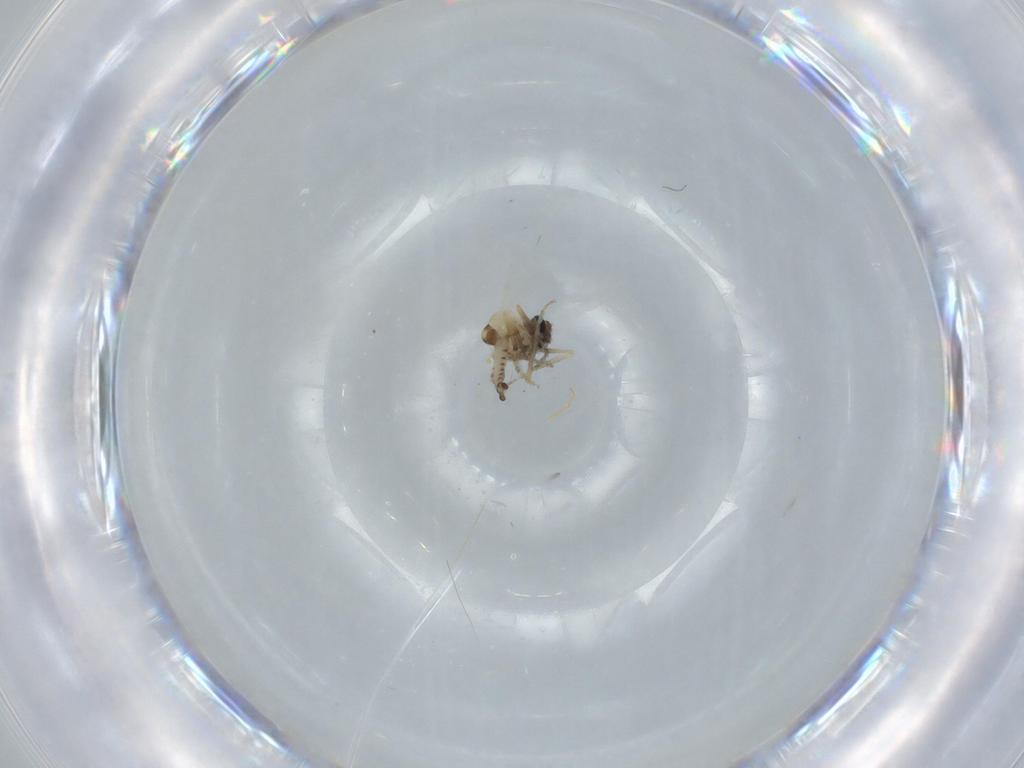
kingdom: Animalia
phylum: Arthropoda
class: Insecta
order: Diptera
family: Ceratopogonidae
